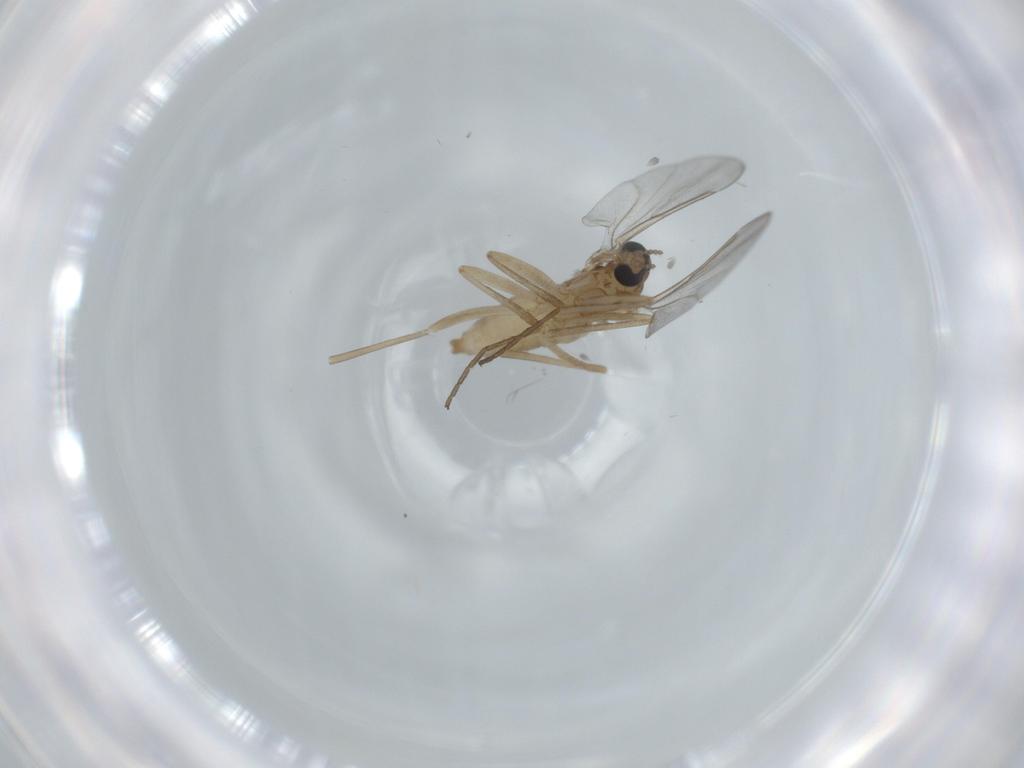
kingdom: Animalia
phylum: Arthropoda
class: Insecta
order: Diptera
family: Cecidomyiidae
